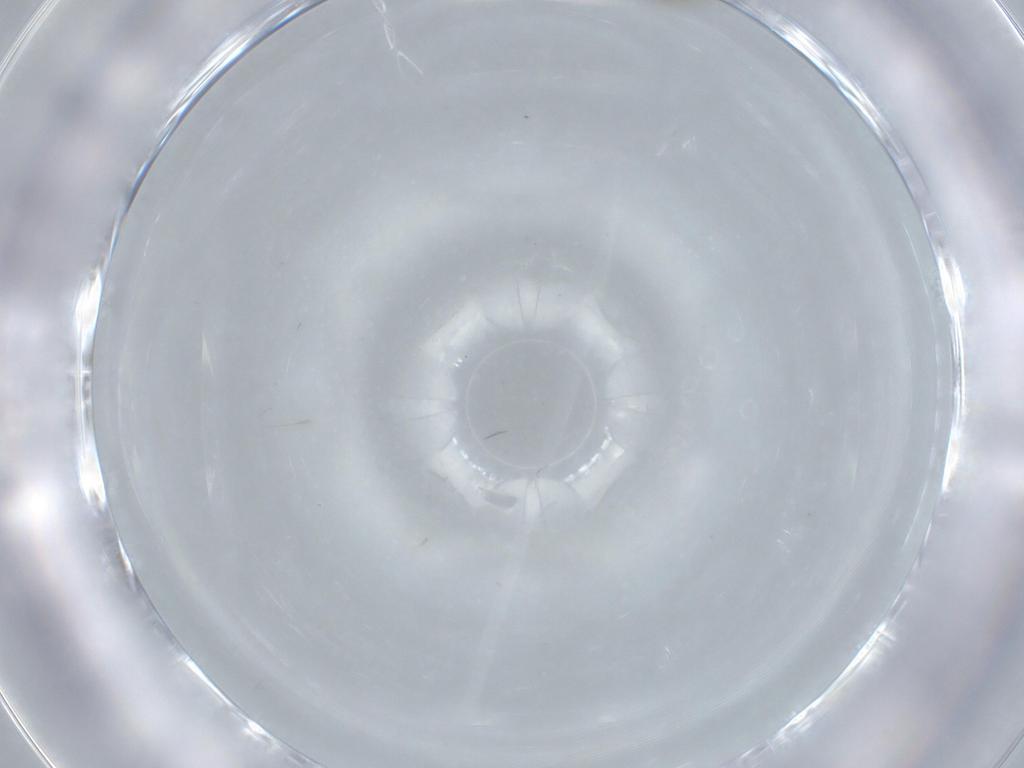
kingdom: Animalia
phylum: Arthropoda
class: Insecta
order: Diptera
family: Cecidomyiidae
